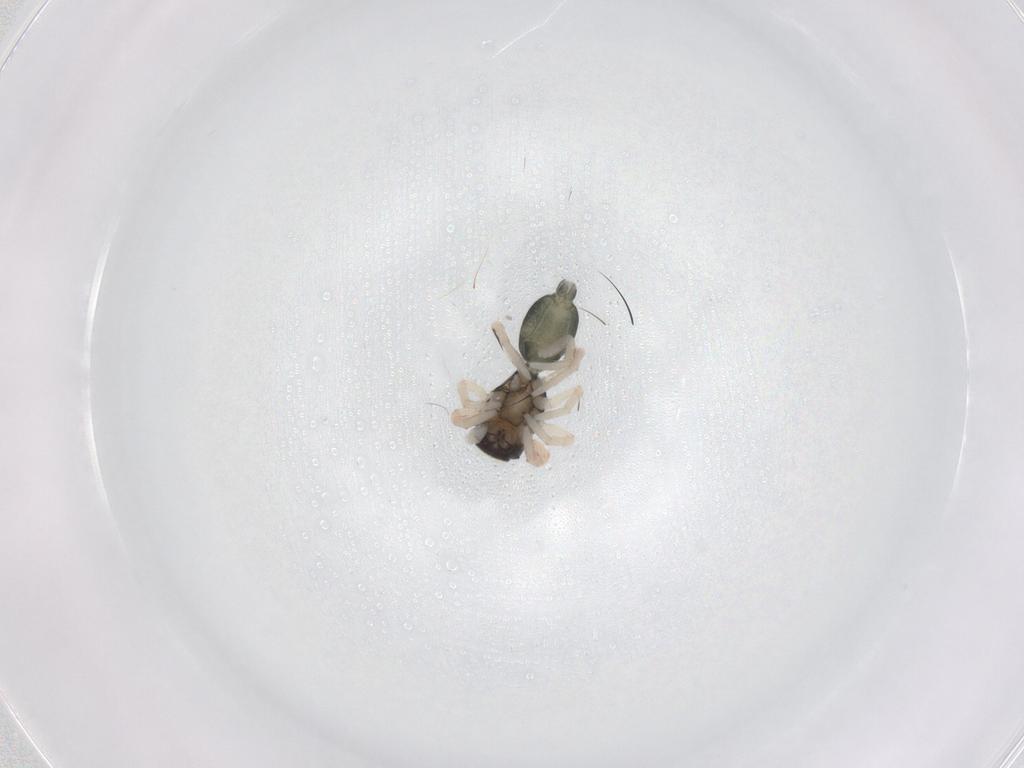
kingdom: Animalia
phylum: Arthropoda
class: Arachnida
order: Araneae
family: Salticidae
